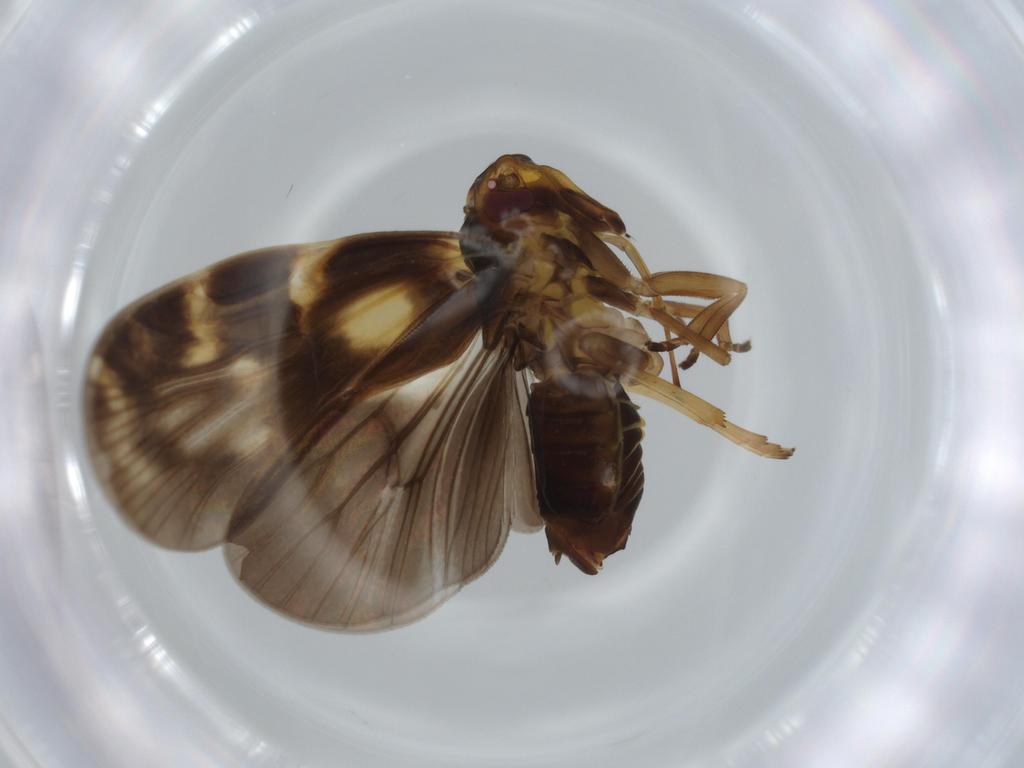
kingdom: Animalia
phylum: Arthropoda
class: Insecta
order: Hemiptera
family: Cixiidae
